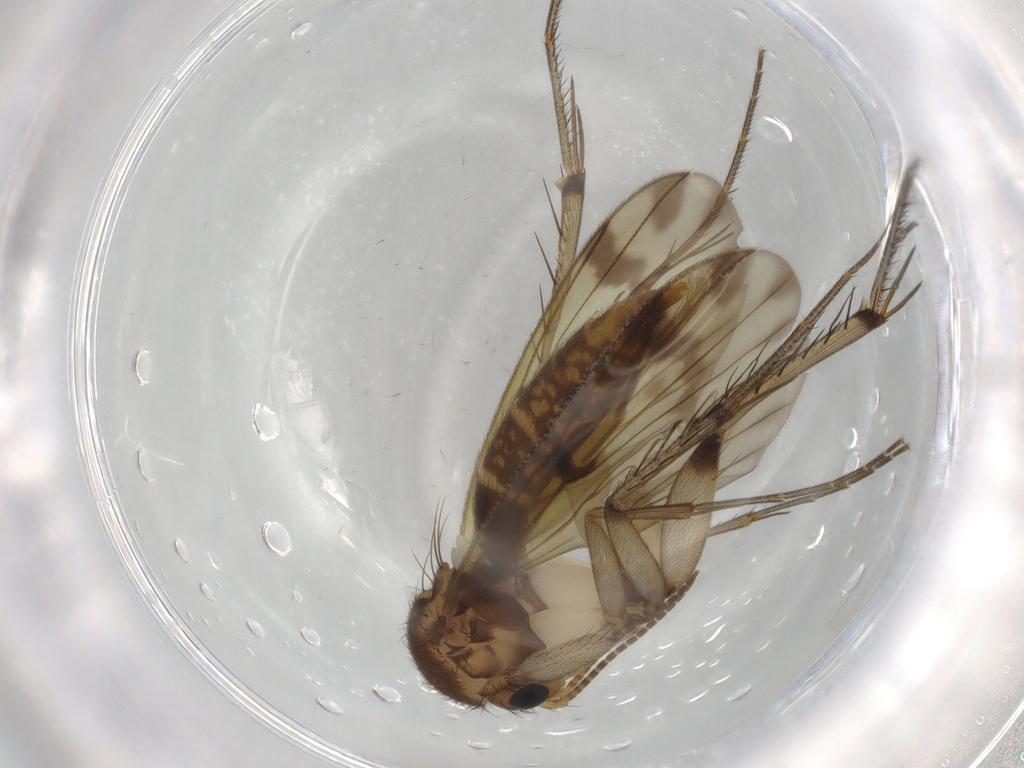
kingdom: Animalia
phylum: Arthropoda
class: Insecta
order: Diptera
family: Mycetophilidae
